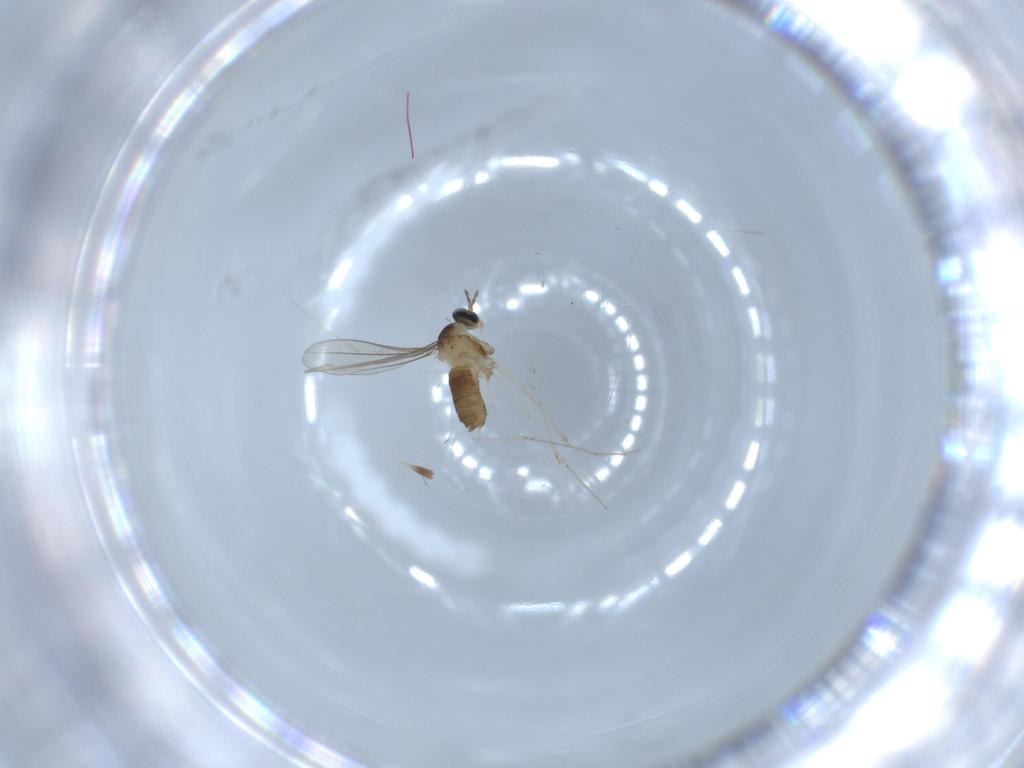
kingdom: Animalia
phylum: Arthropoda
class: Insecta
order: Diptera
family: Cecidomyiidae
